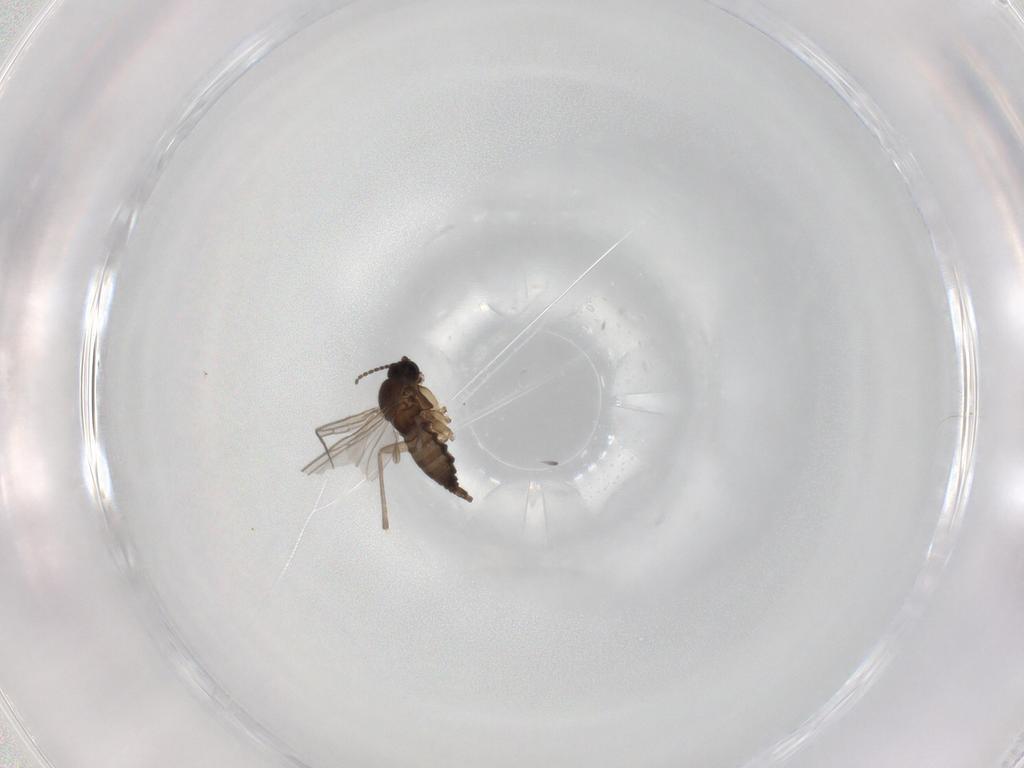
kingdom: Animalia
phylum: Arthropoda
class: Insecta
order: Diptera
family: Sciaridae
